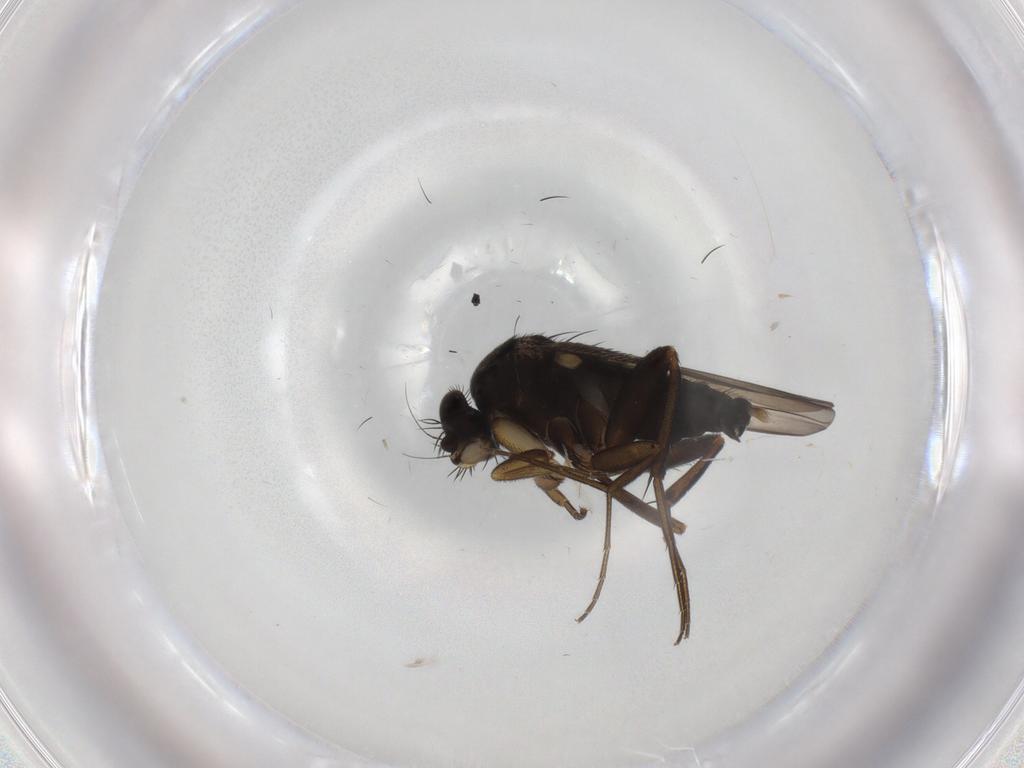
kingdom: Animalia
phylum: Arthropoda
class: Insecta
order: Diptera
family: Phoridae
